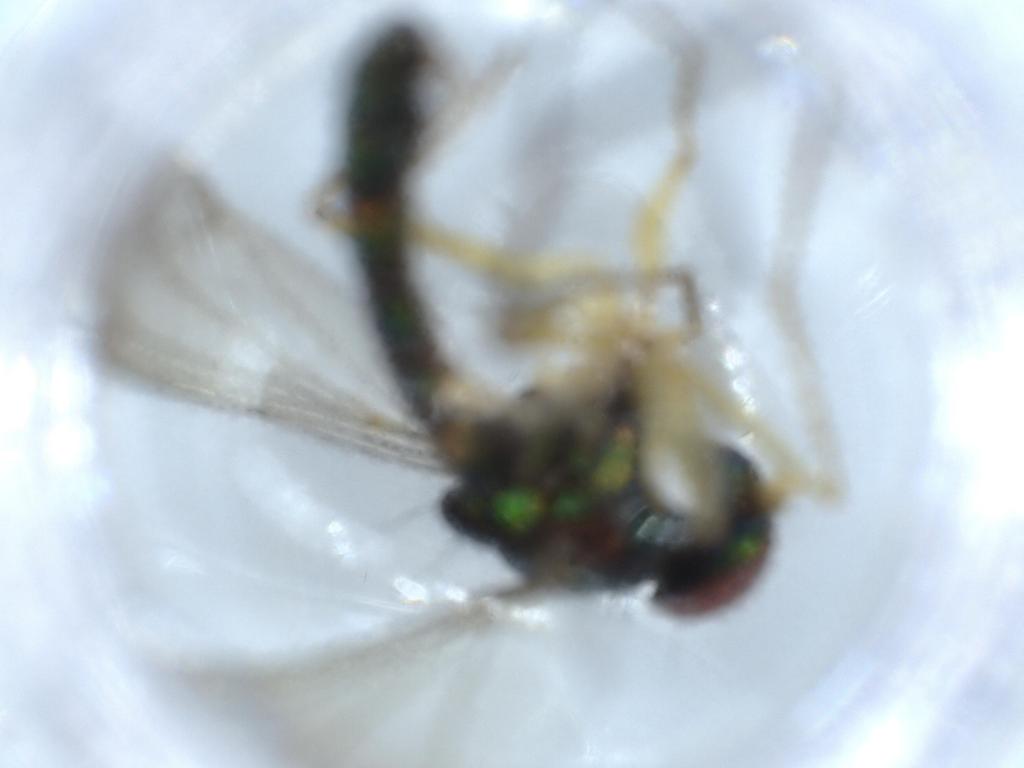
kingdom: Animalia
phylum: Arthropoda
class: Insecta
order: Diptera
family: Dolichopodidae
